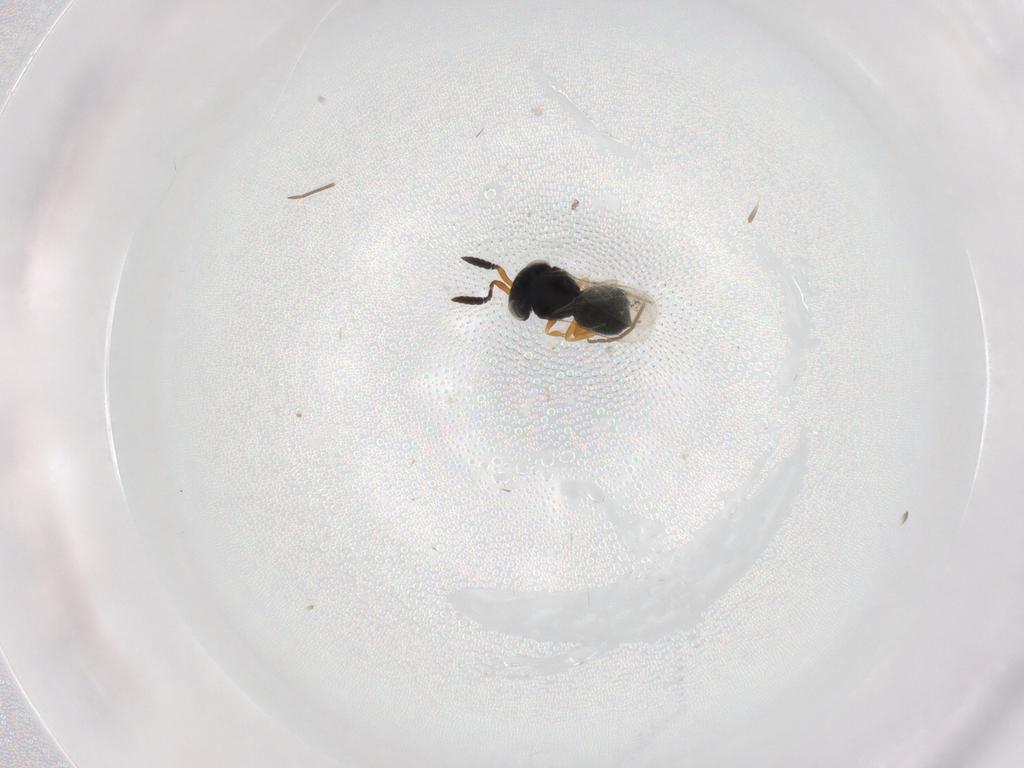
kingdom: Animalia
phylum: Arthropoda
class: Insecta
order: Hymenoptera
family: Scelionidae
